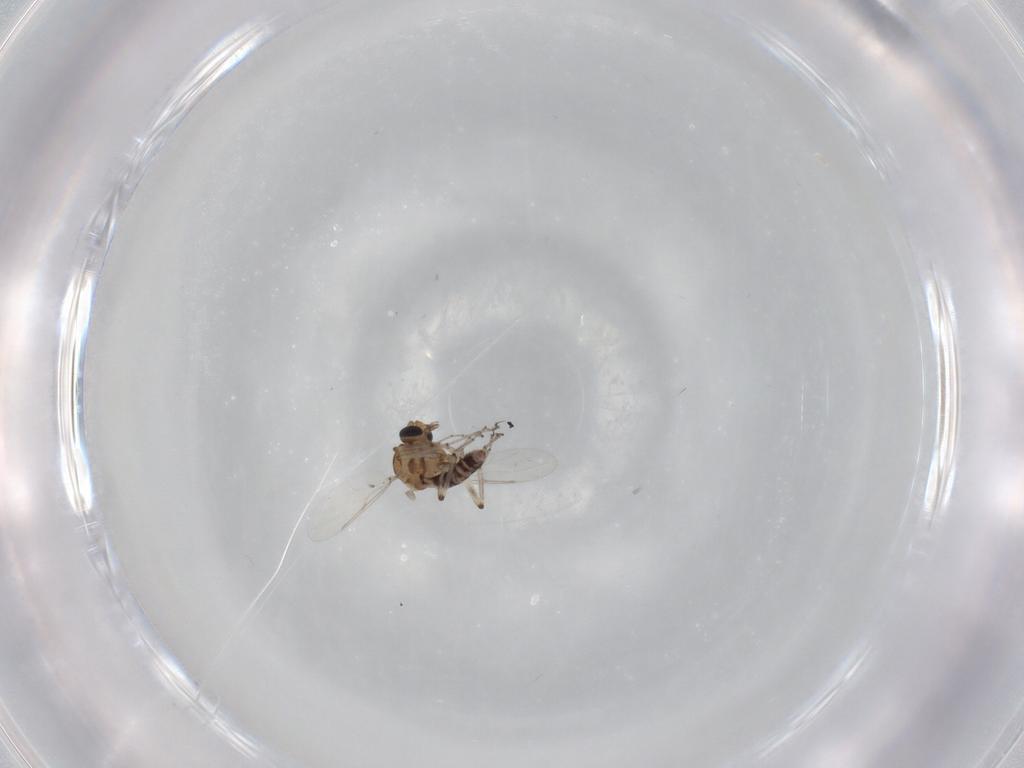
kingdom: Animalia
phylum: Arthropoda
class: Insecta
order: Diptera
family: Ceratopogonidae
